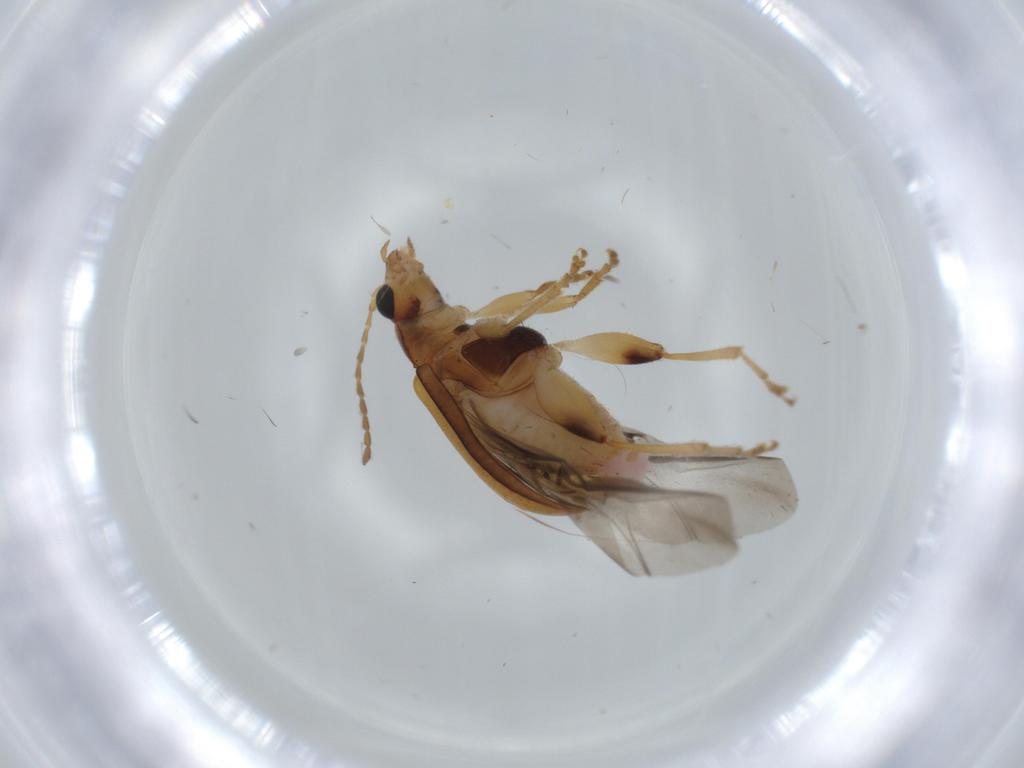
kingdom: Animalia
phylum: Arthropoda
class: Insecta
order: Coleoptera
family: Chrysomelidae
